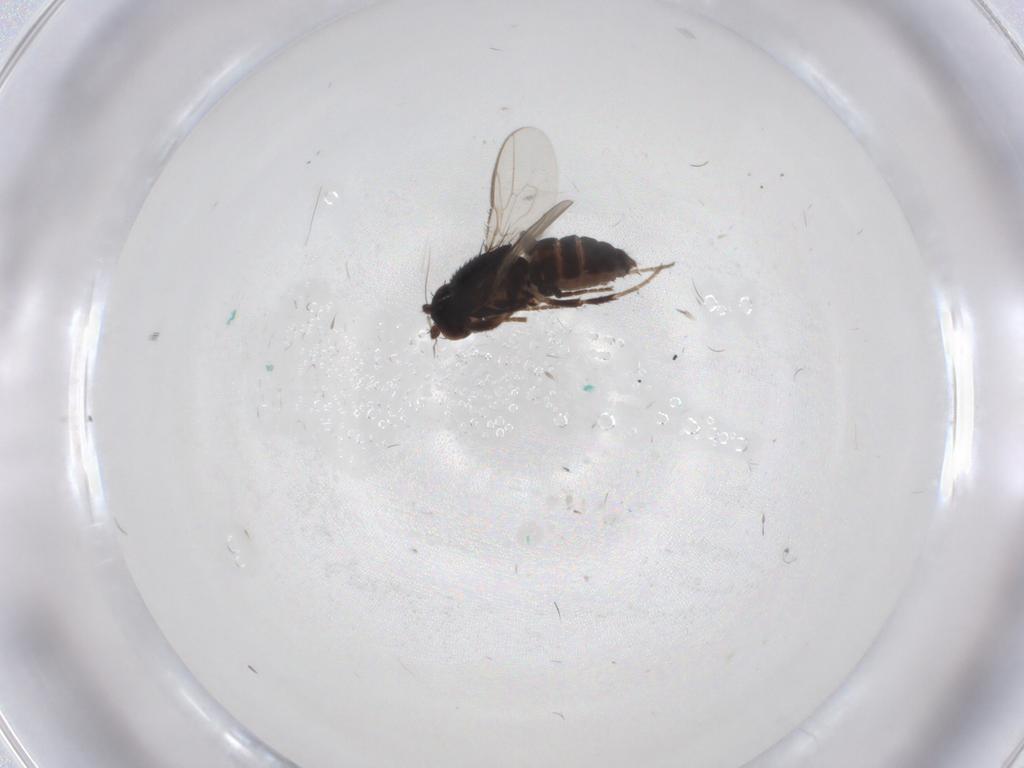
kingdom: Animalia
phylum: Arthropoda
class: Insecta
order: Diptera
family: Sphaeroceridae
